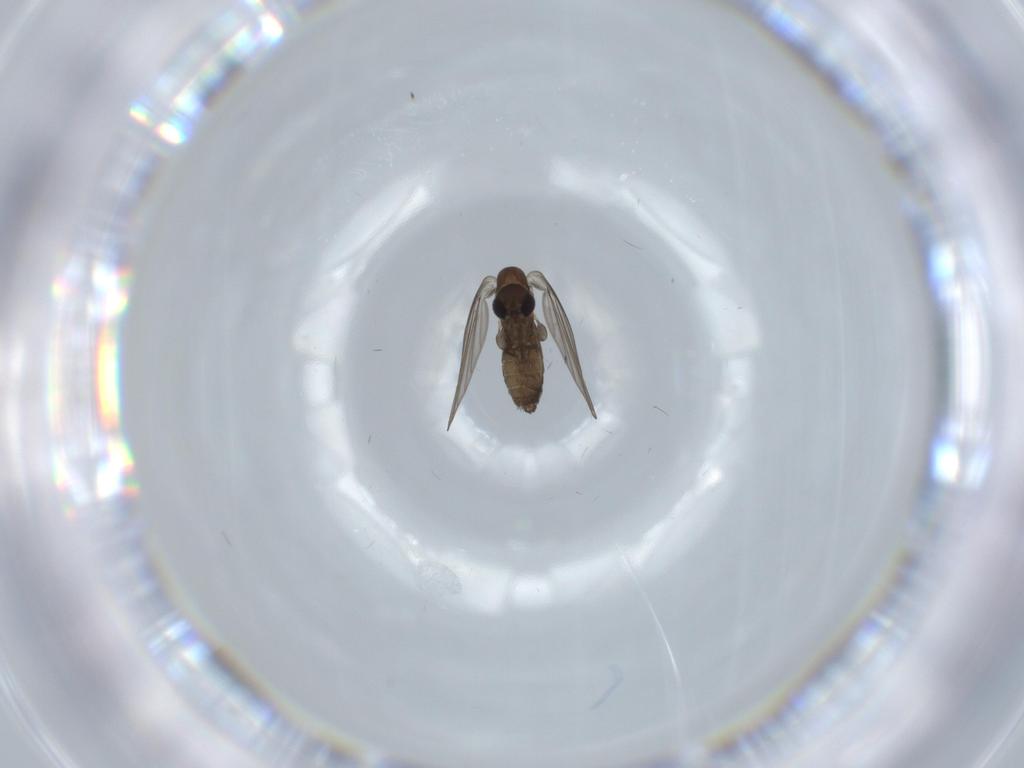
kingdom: Animalia
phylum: Arthropoda
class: Insecta
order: Diptera
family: Psychodidae
